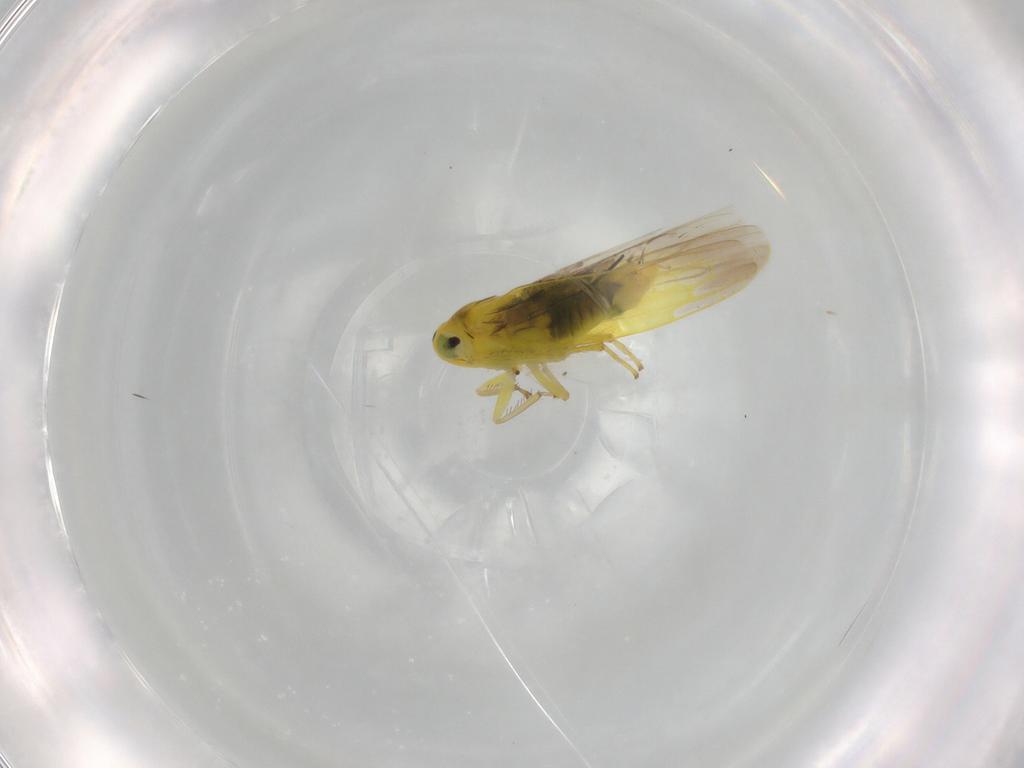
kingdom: Animalia
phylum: Arthropoda
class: Insecta
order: Hemiptera
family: Cicadellidae
